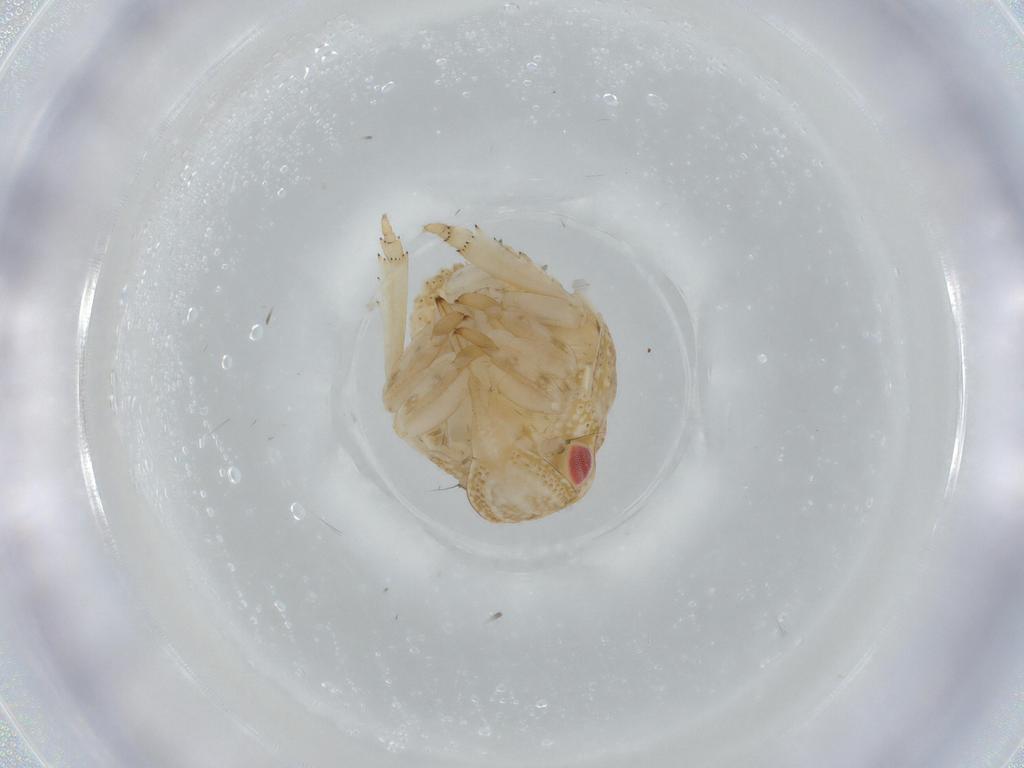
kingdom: Animalia
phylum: Arthropoda
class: Insecta
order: Hemiptera
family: Acanaloniidae
